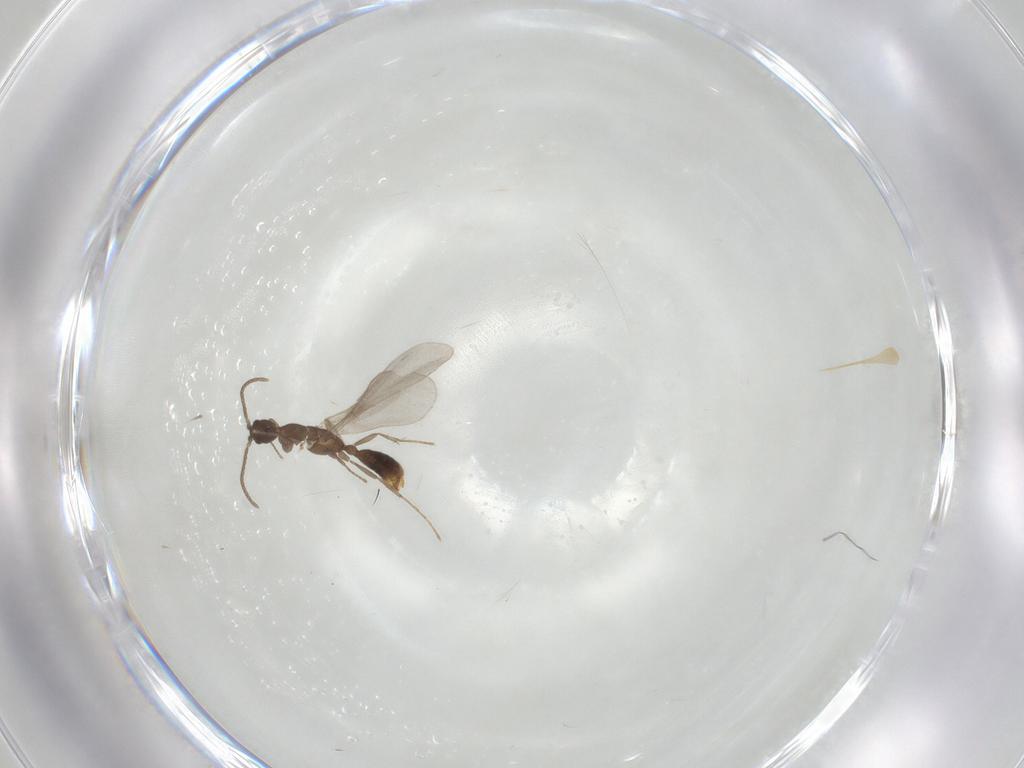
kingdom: Animalia
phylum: Arthropoda
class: Insecta
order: Hymenoptera
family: Formicidae
